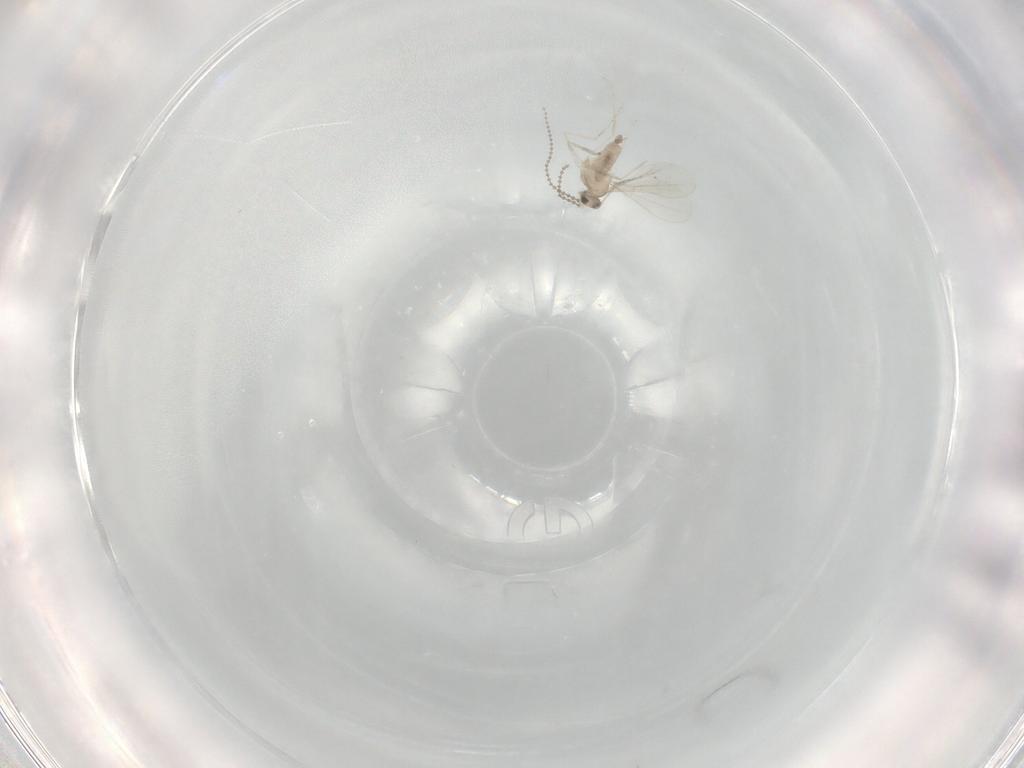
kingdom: Animalia
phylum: Arthropoda
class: Insecta
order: Diptera
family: Cecidomyiidae
